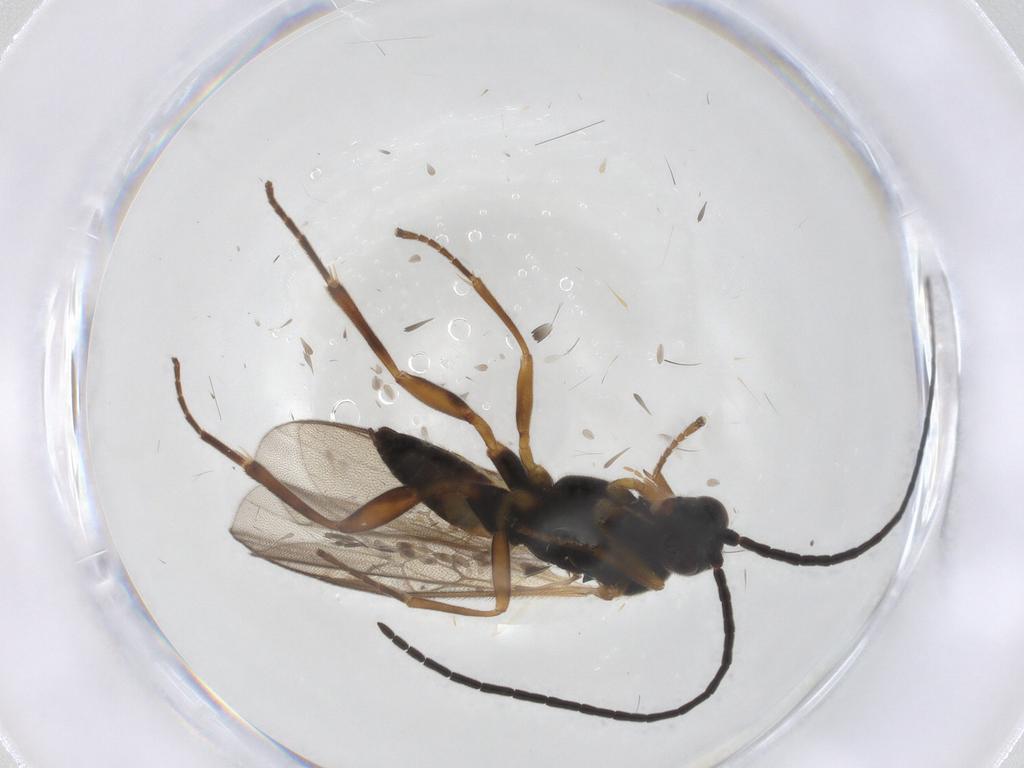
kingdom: Animalia
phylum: Arthropoda
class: Insecta
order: Hymenoptera
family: Braconidae
